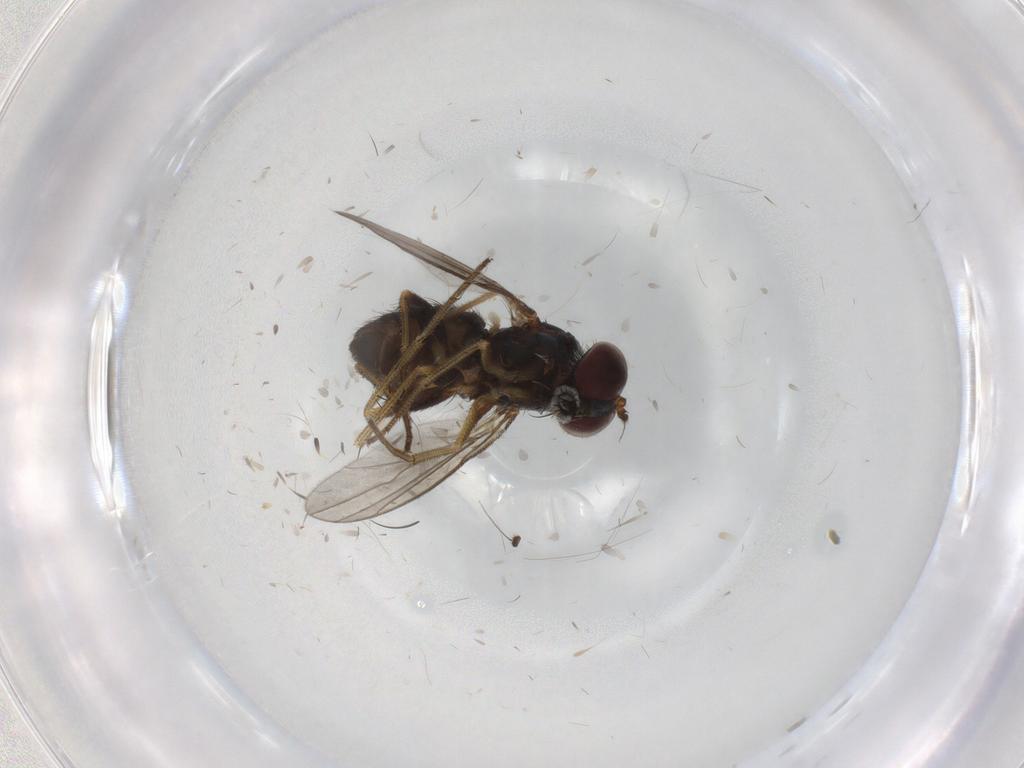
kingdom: Animalia
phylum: Arthropoda
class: Insecta
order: Diptera
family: Dolichopodidae
